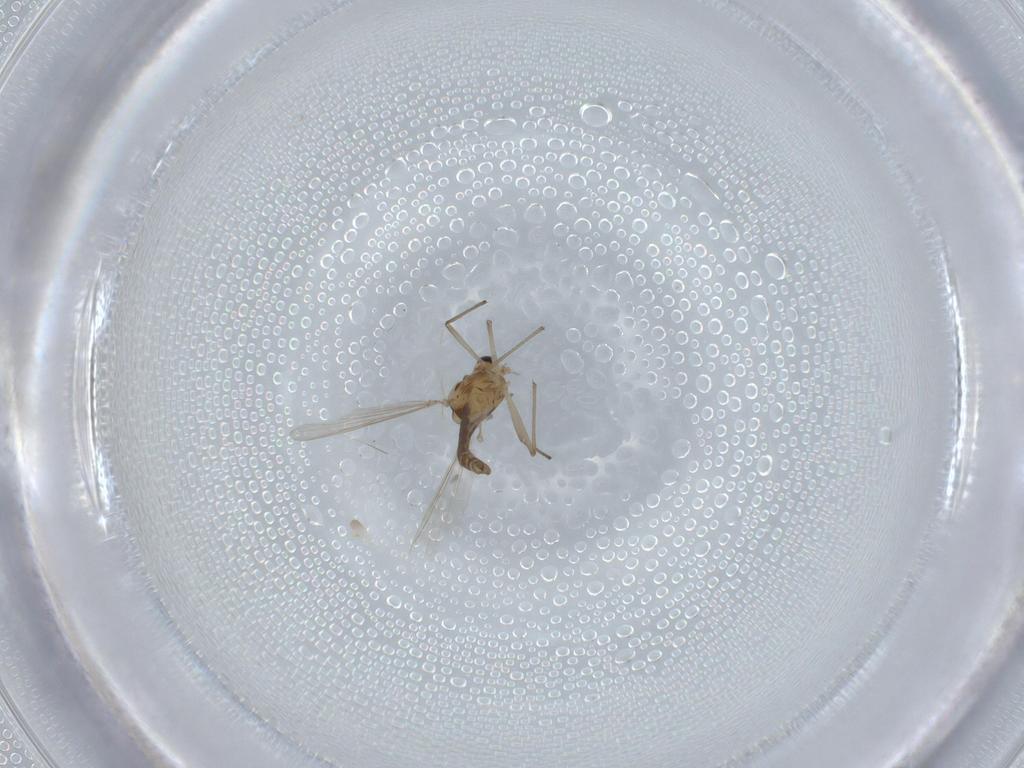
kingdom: Animalia
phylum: Arthropoda
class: Insecta
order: Diptera
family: Chironomidae
